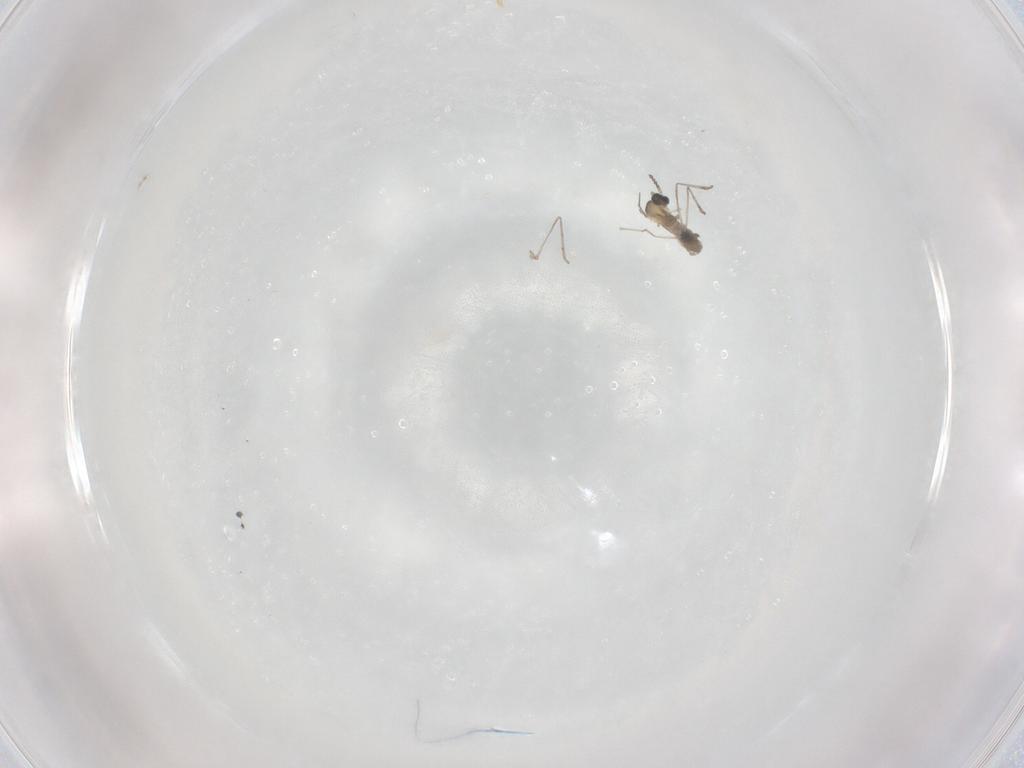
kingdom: Animalia
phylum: Arthropoda
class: Insecta
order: Diptera
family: Cecidomyiidae
